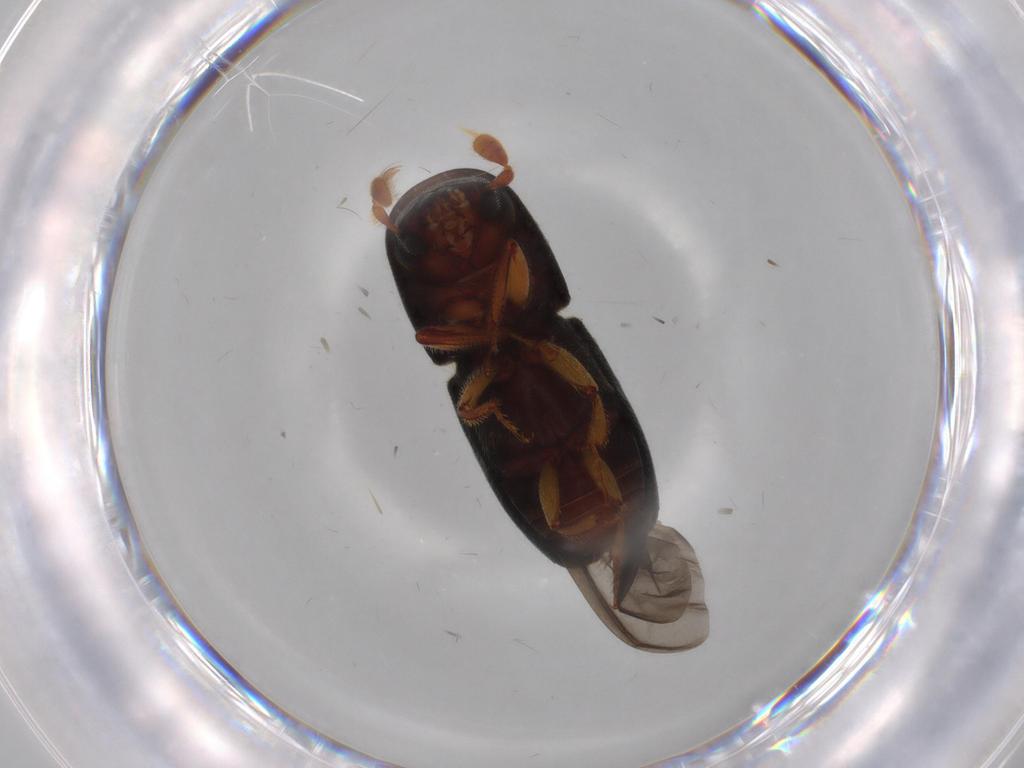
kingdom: Animalia
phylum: Arthropoda
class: Insecta
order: Coleoptera
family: Curculionidae
